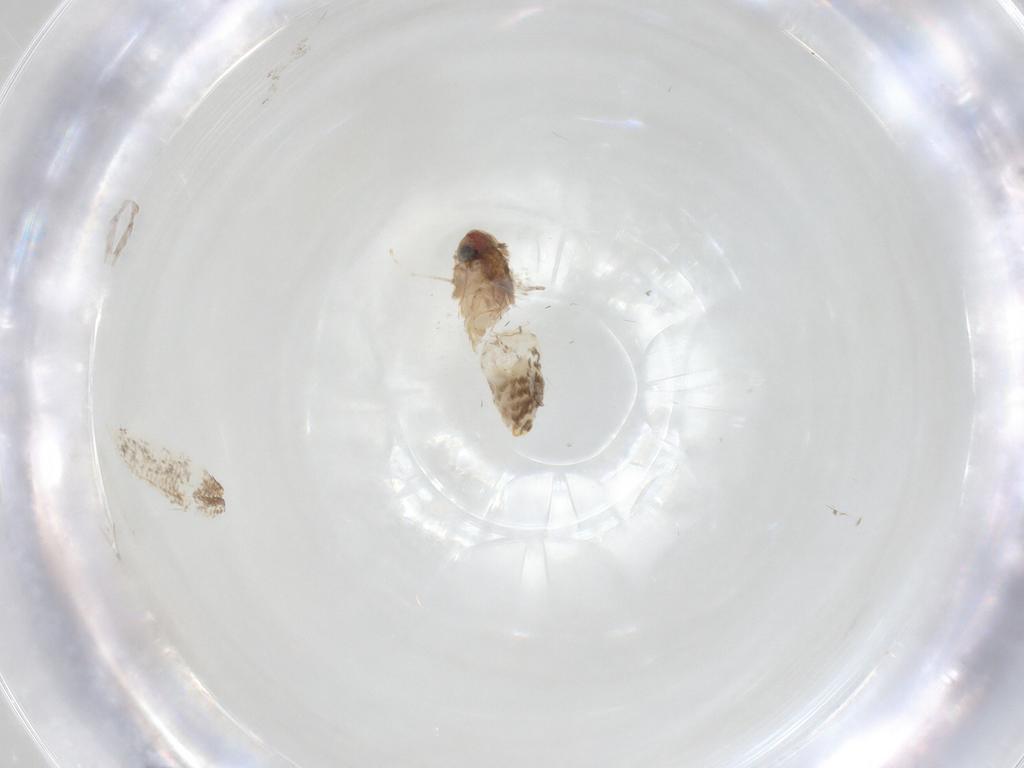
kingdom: Animalia
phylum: Arthropoda
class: Insecta
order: Lepidoptera
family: Nepticulidae
